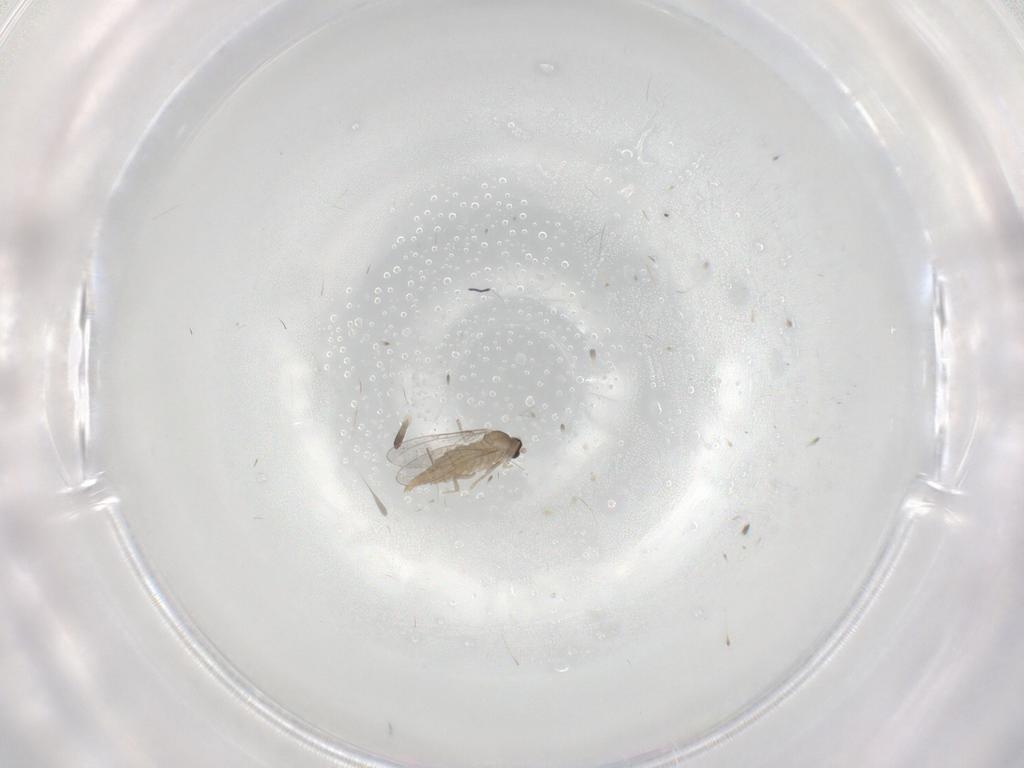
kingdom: Animalia
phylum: Arthropoda
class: Insecta
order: Diptera
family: Cecidomyiidae
